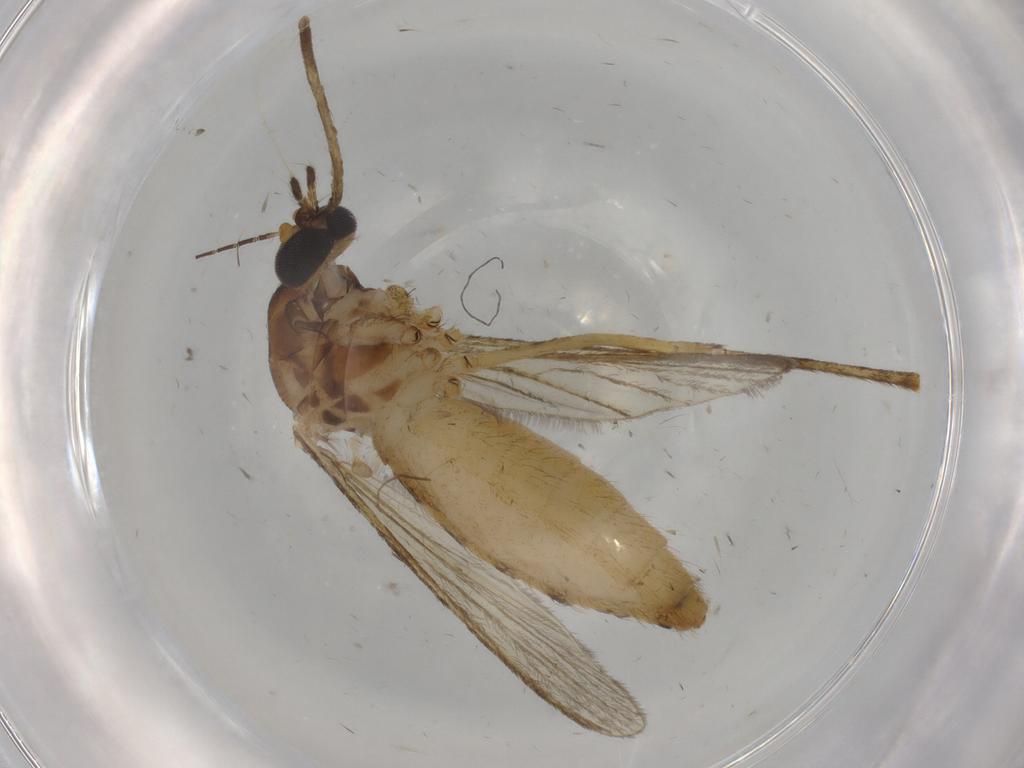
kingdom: Animalia
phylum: Arthropoda
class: Insecta
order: Diptera
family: Culicidae
